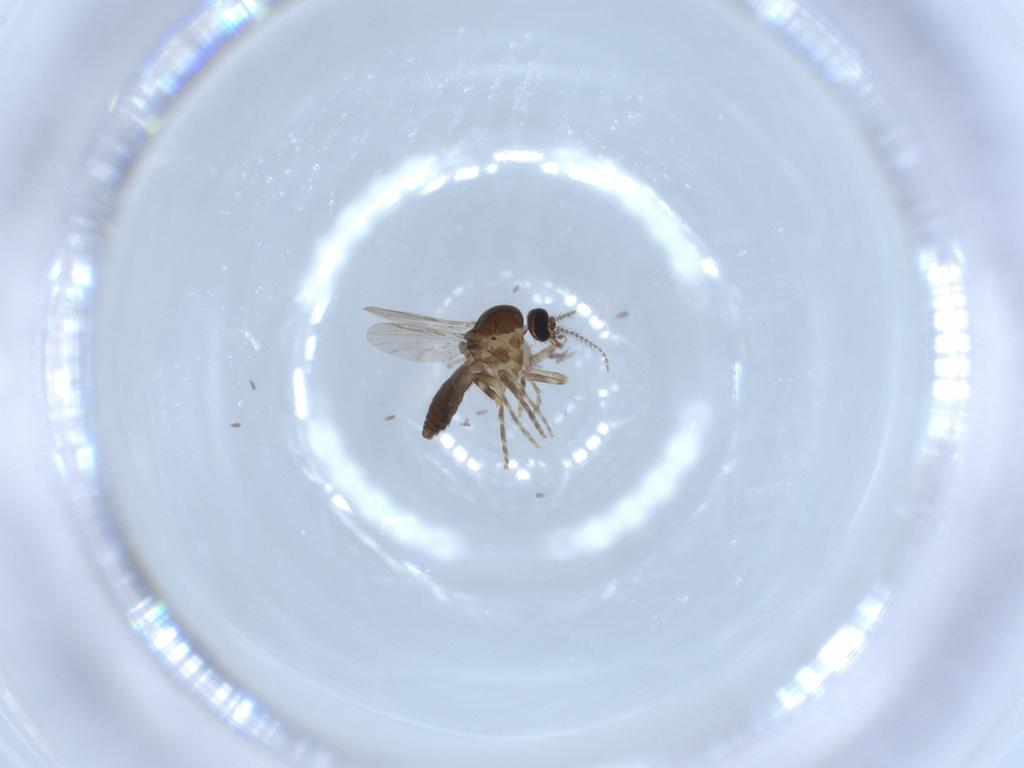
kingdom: Animalia
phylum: Arthropoda
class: Insecta
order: Diptera
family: Ceratopogonidae
